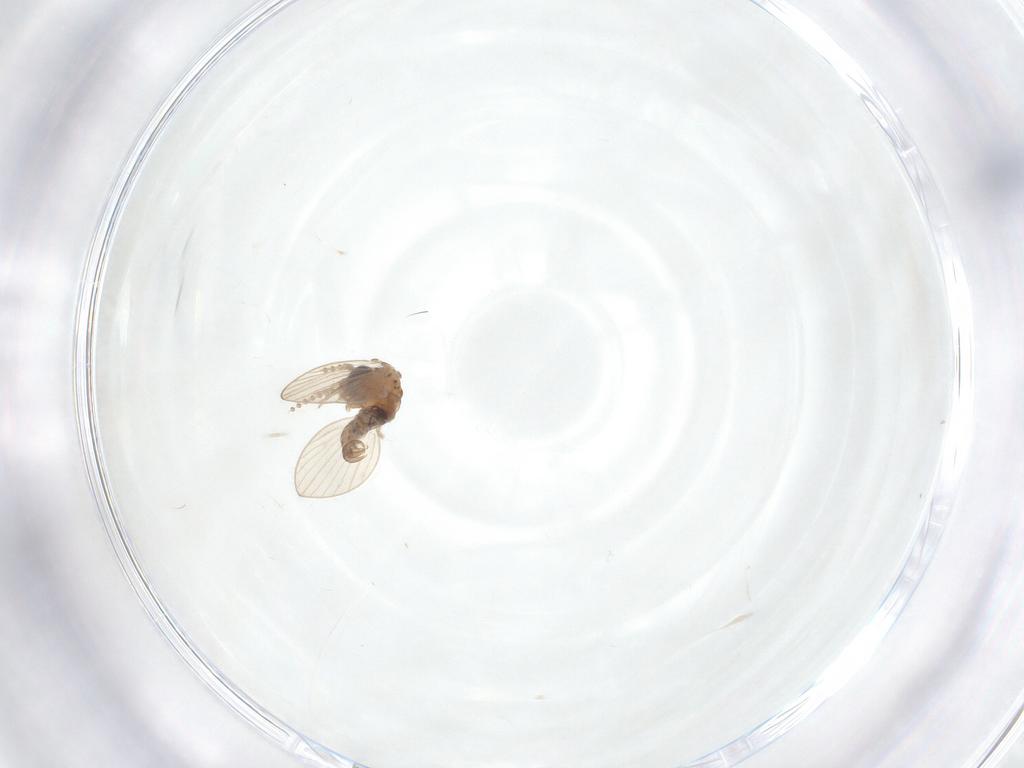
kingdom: Animalia
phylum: Arthropoda
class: Insecta
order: Diptera
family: Psychodidae
